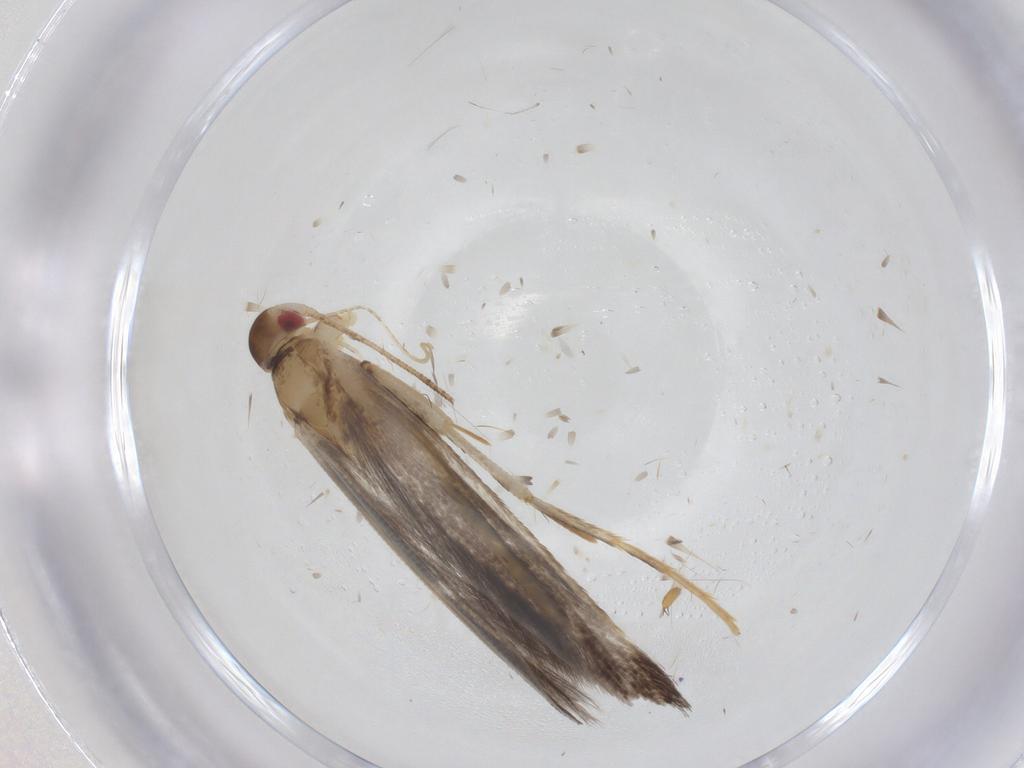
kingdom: Animalia
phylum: Arthropoda
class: Insecta
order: Lepidoptera
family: Cosmopterigidae
